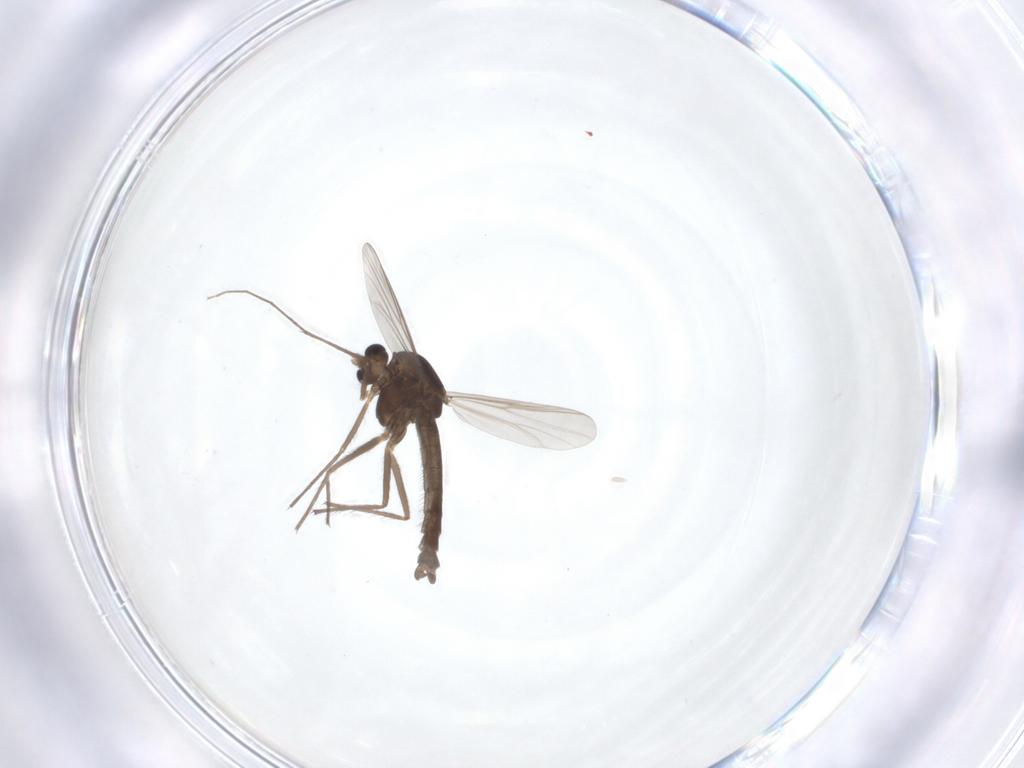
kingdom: Animalia
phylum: Arthropoda
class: Insecta
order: Diptera
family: Chironomidae
